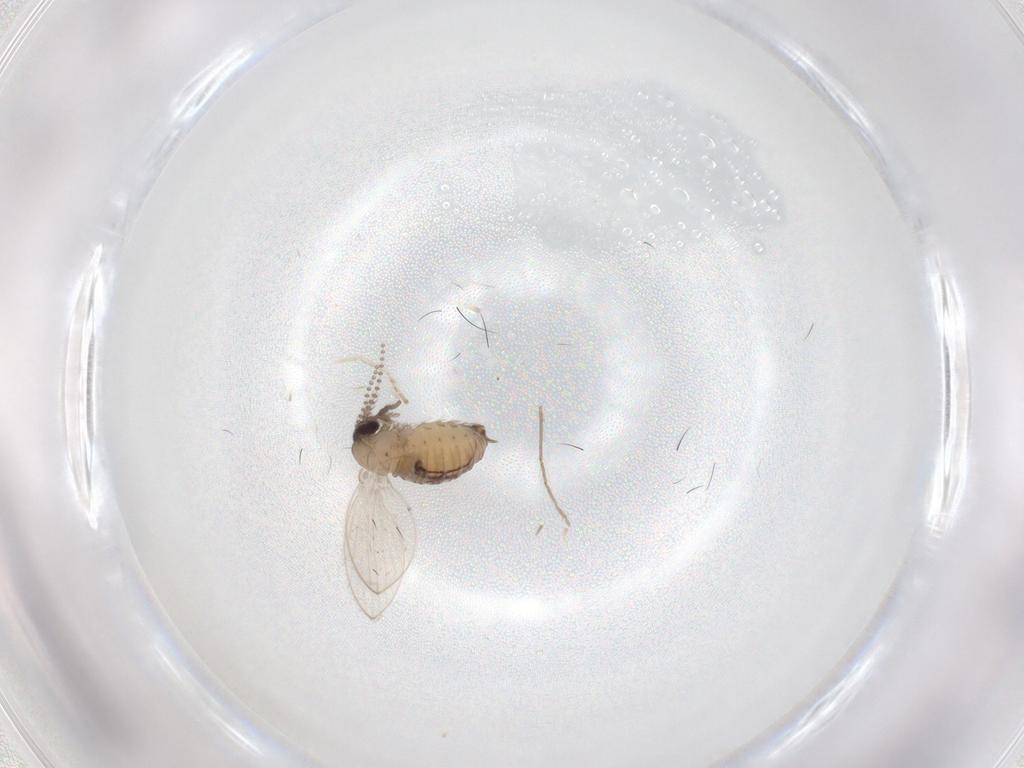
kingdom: Animalia
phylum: Arthropoda
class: Insecta
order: Diptera
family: Psychodidae
